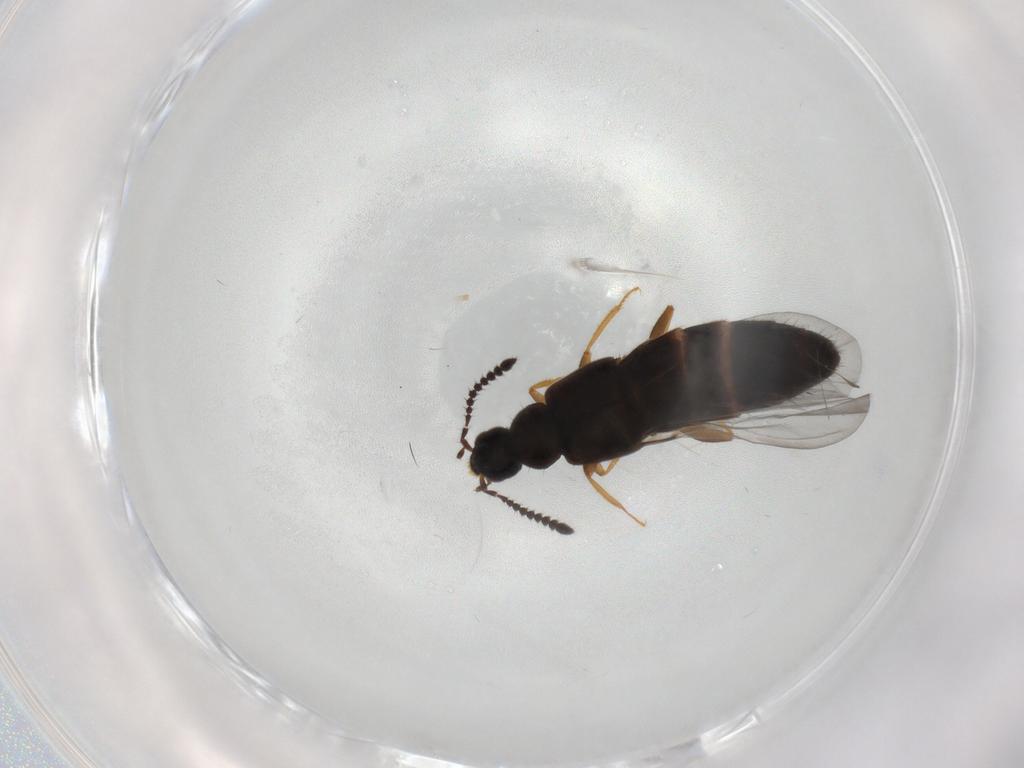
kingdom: Animalia
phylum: Arthropoda
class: Insecta
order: Coleoptera
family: Staphylinidae
